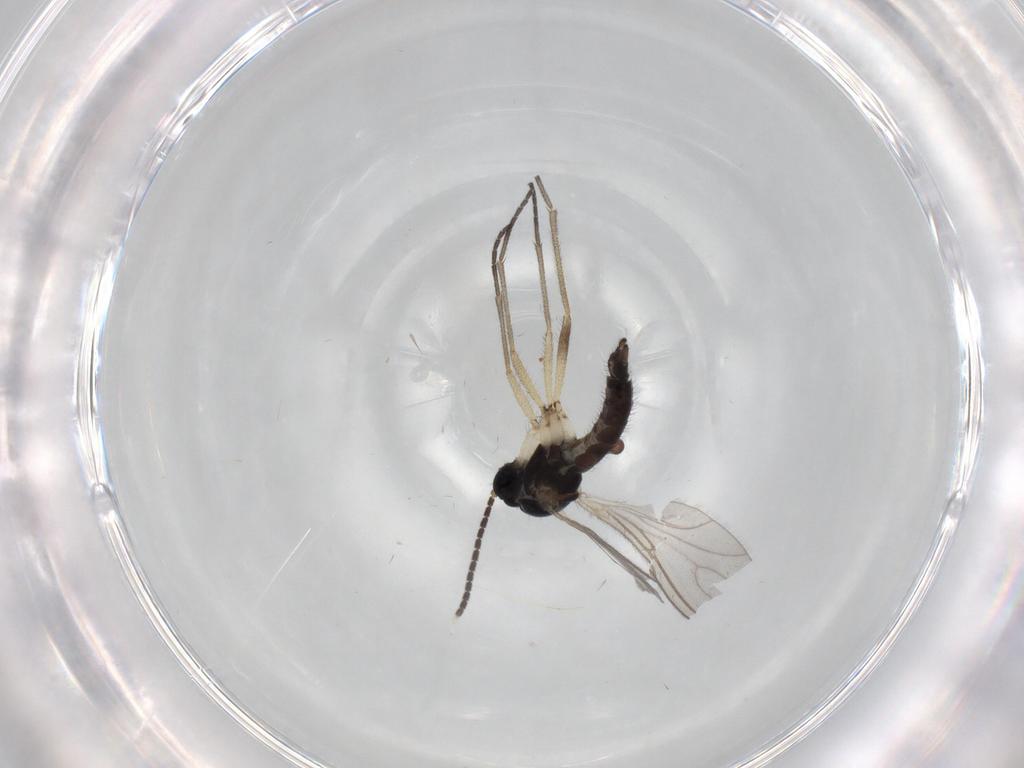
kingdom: Animalia
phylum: Arthropoda
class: Insecta
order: Diptera
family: Sciaridae
